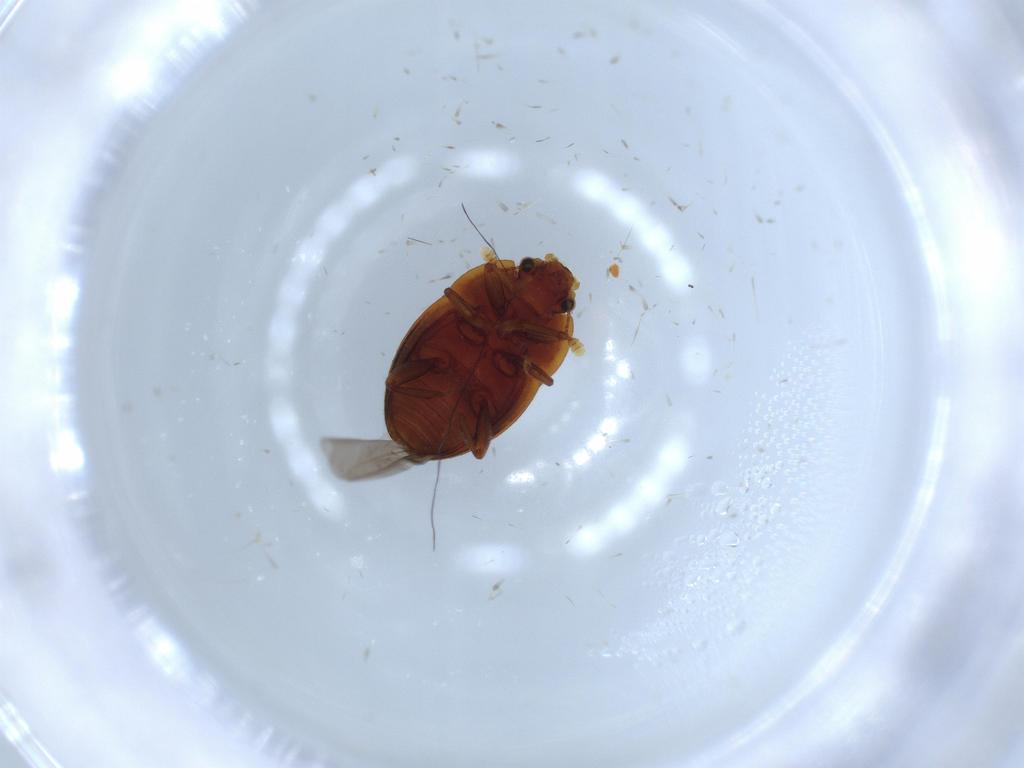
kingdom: Animalia
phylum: Arthropoda
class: Insecta
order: Coleoptera
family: Nitidulidae
